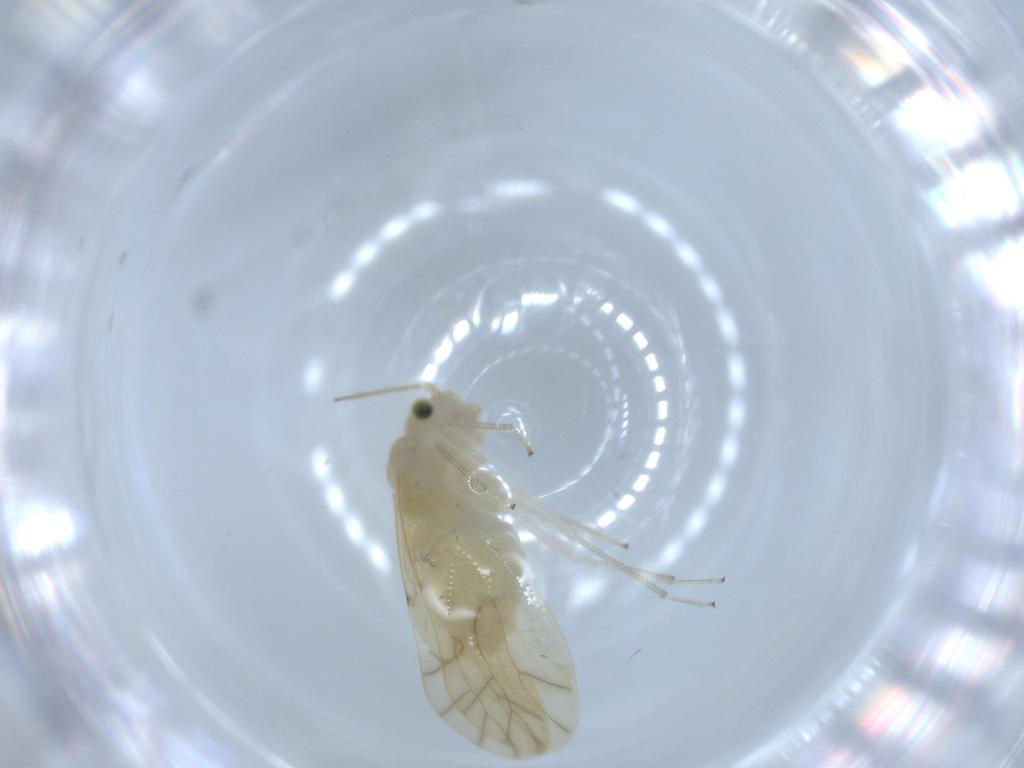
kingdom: Animalia
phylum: Arthropoda
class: Insecta
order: Psocodea
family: Caeciliusidae
